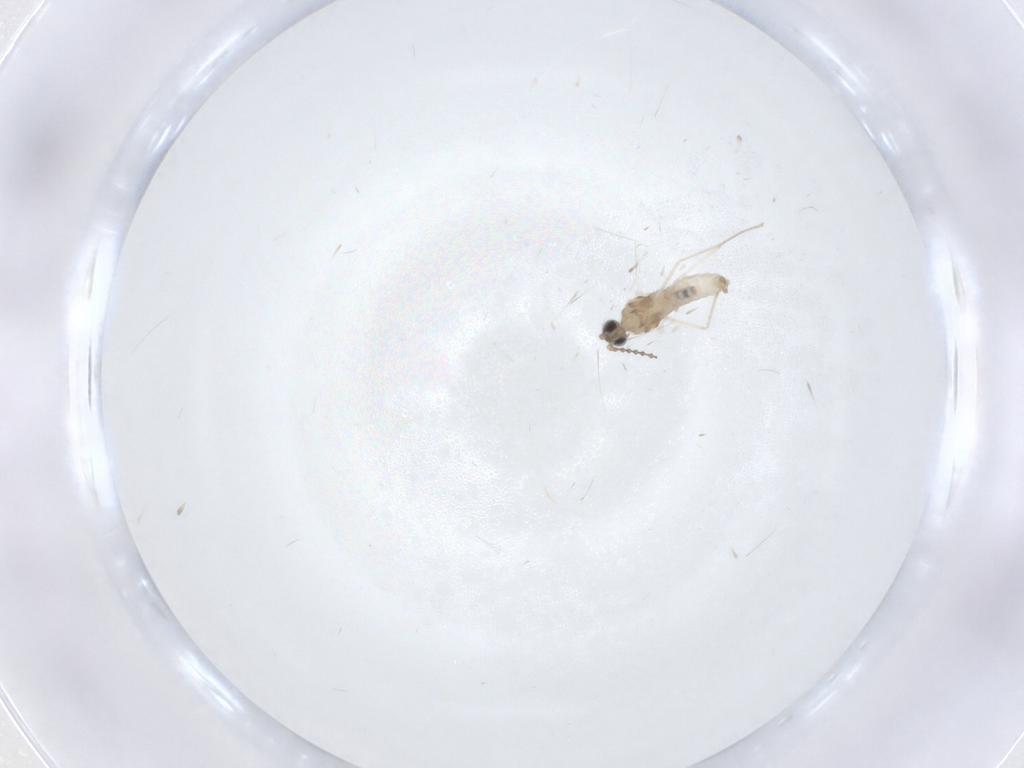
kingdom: Animalia
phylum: Arthropoda
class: Insecta
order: Diptera
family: Cecidomyiidae
